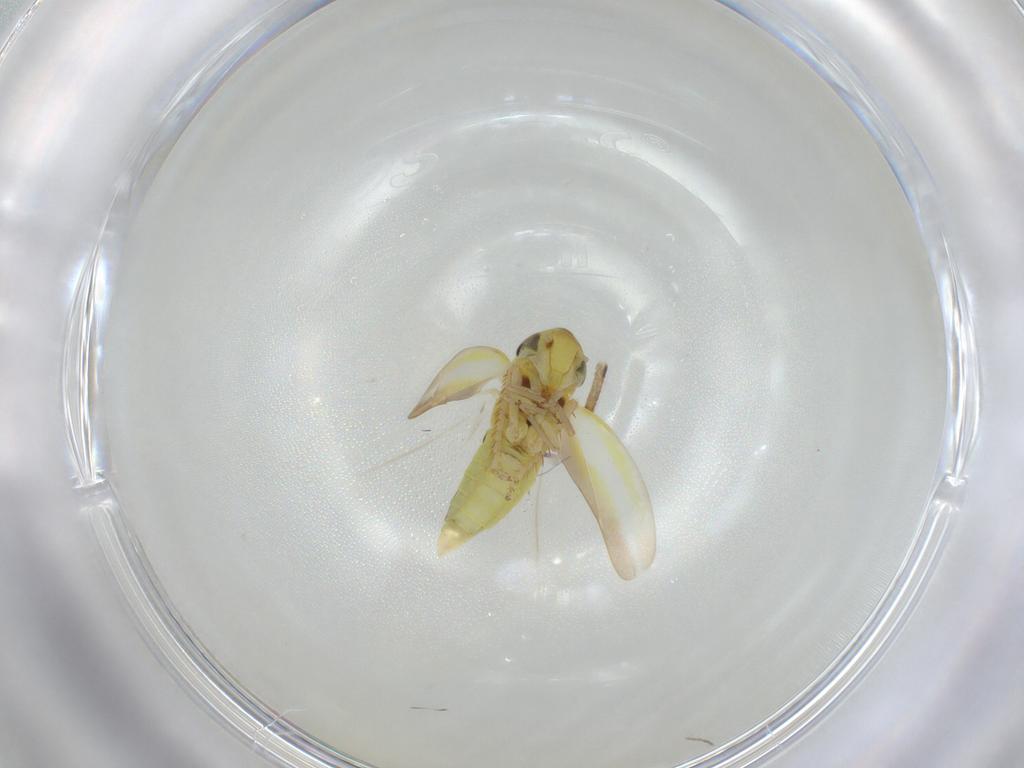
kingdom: Animalia
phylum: Arthropoda
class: Insecta
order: Hemiptera
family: Cicadellidae
